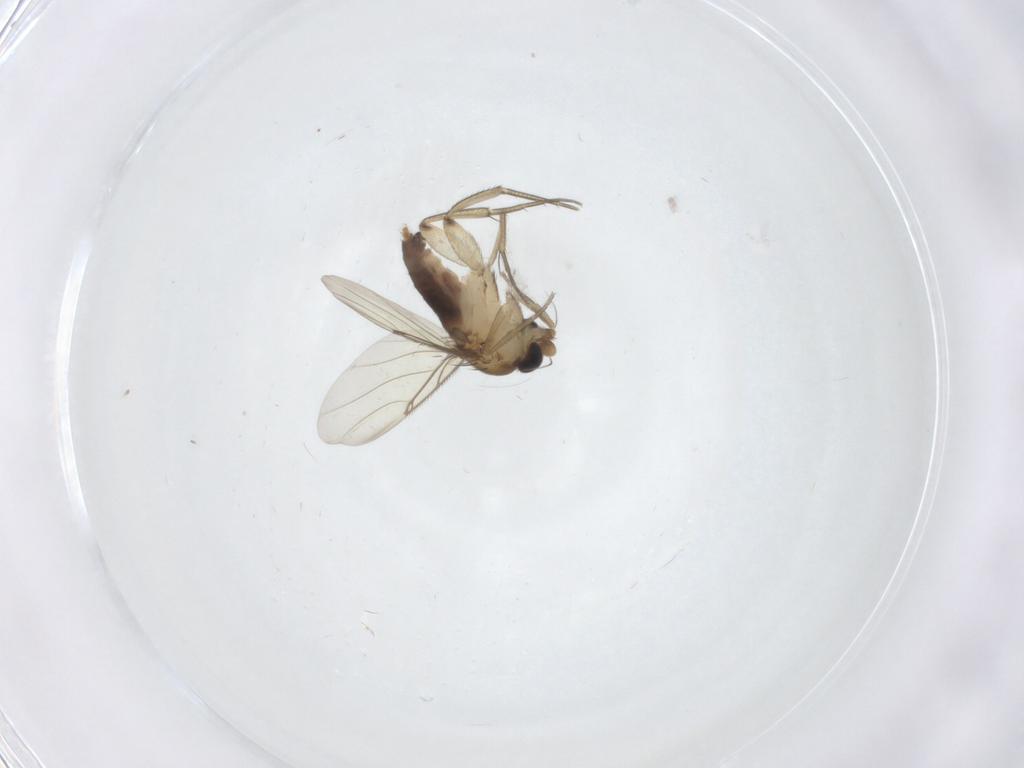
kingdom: Animalia
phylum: Arthropoda
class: Insecta
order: Diptera
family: Phoridae
